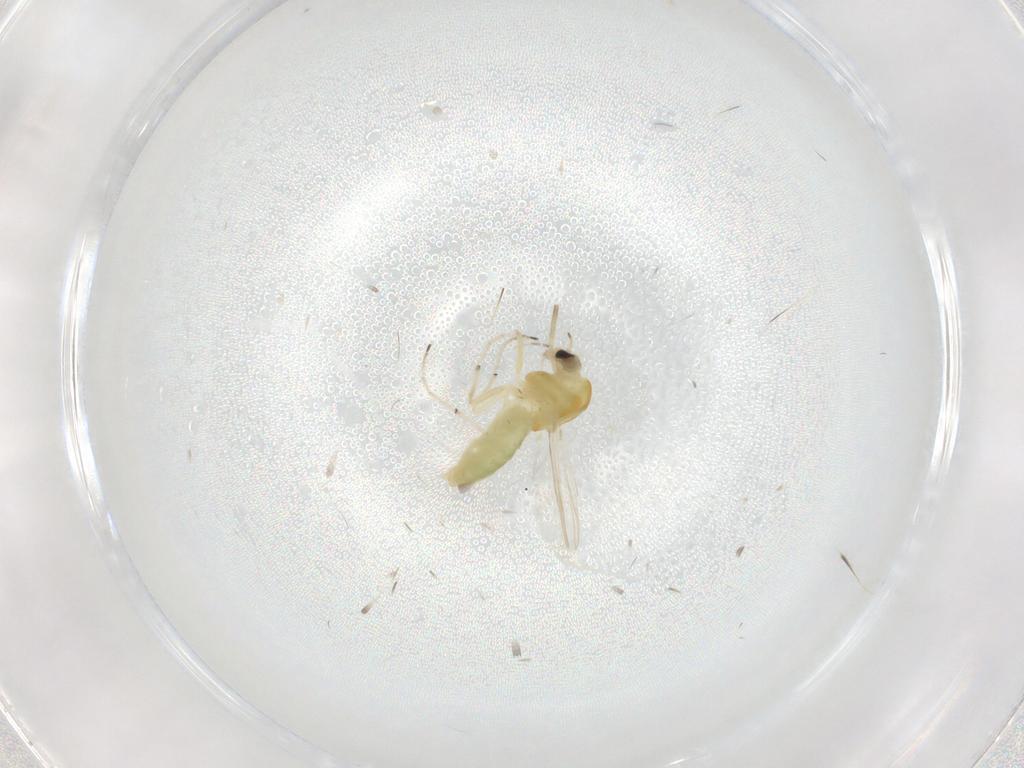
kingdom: Animalia
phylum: Arthropoda
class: Insecta
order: Diptera
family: Chironomidae
